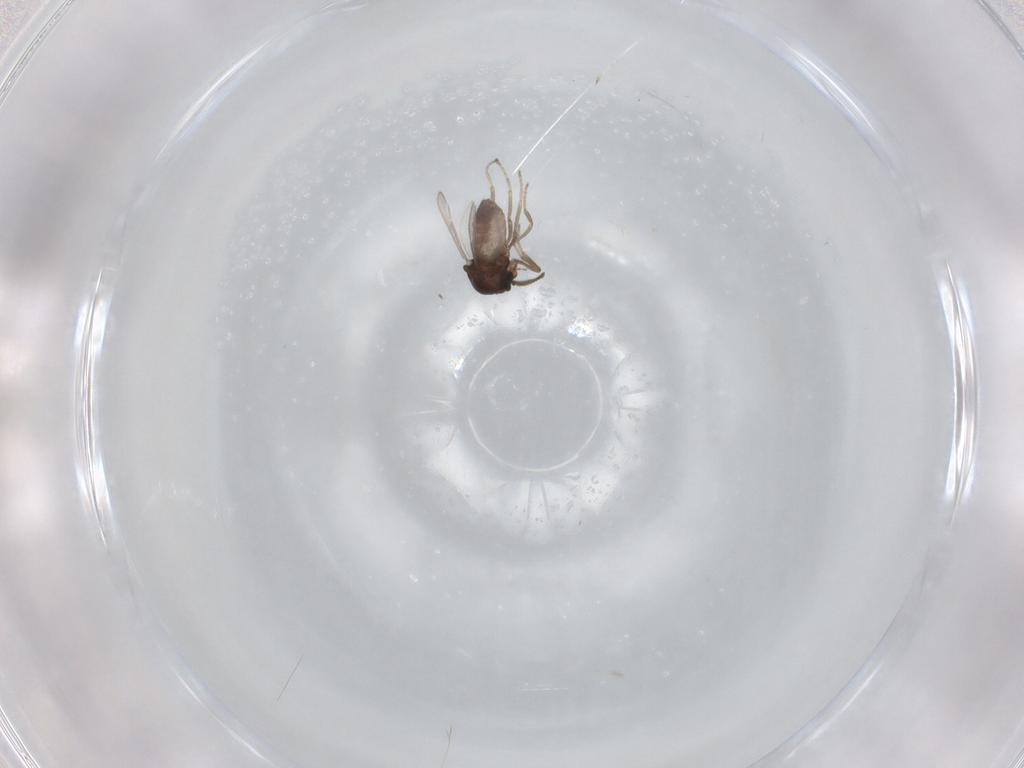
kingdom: Animalia
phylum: Arthropoda
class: Insecta
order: Diptera
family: Ceratopogonidae
